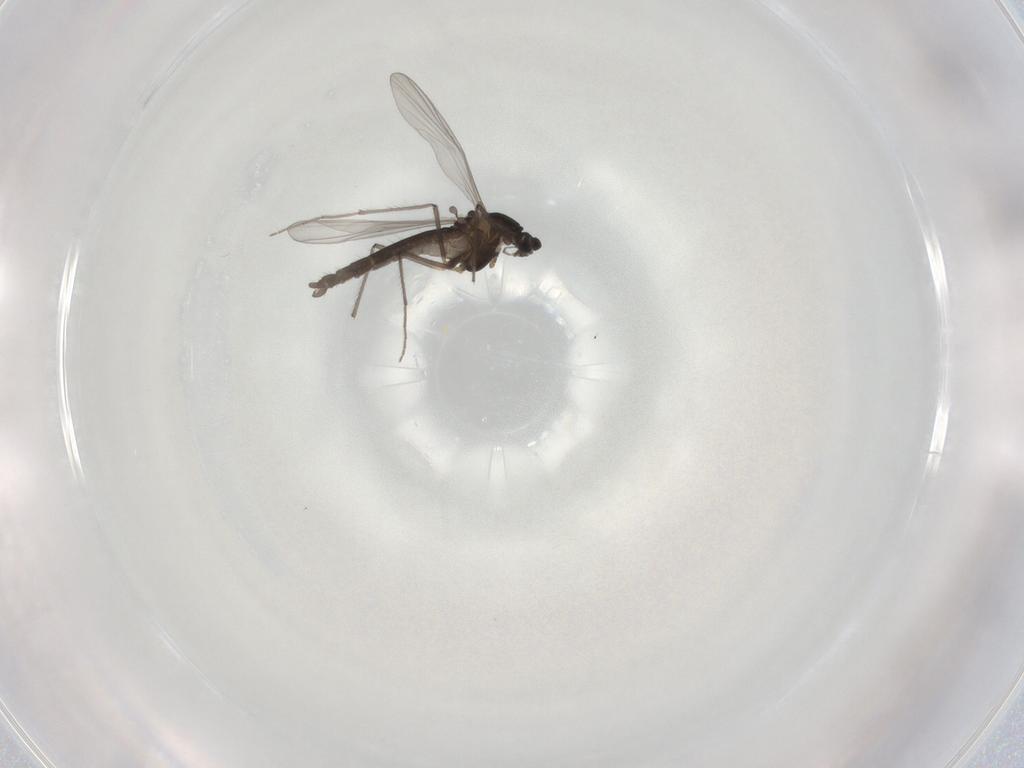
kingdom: Animalia
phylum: Arthropoda
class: Insecta
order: Diptera
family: Chironomidae
